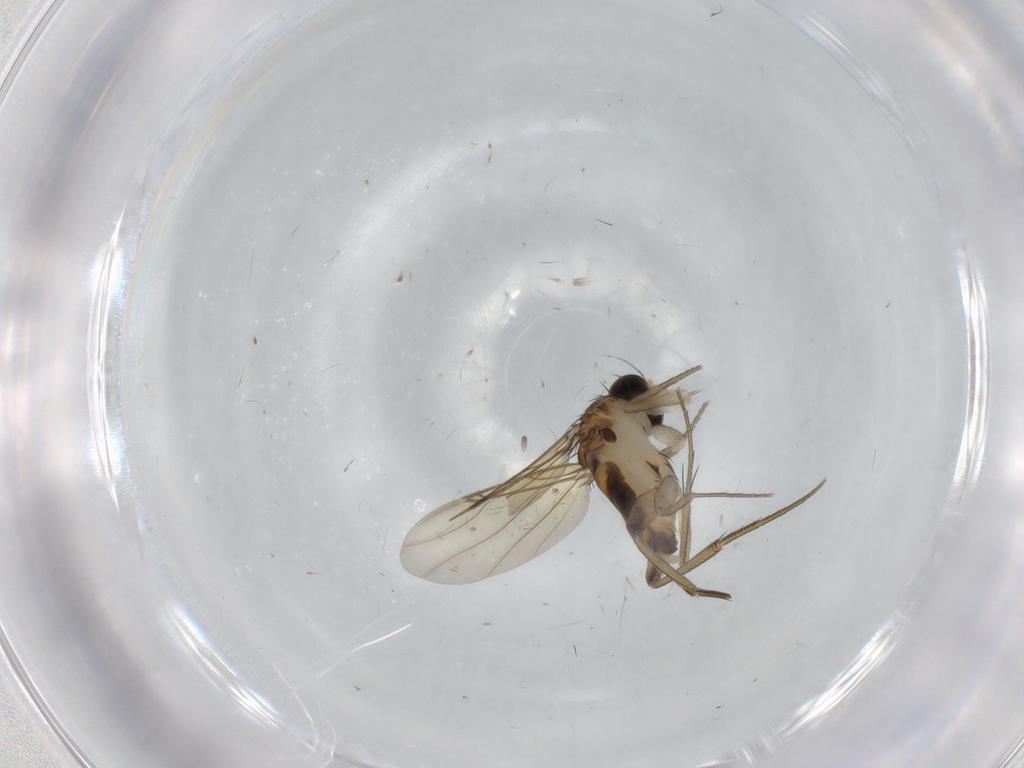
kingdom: Animalia
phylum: Arthropoda
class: Insecta
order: Diptera
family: Phoridae
